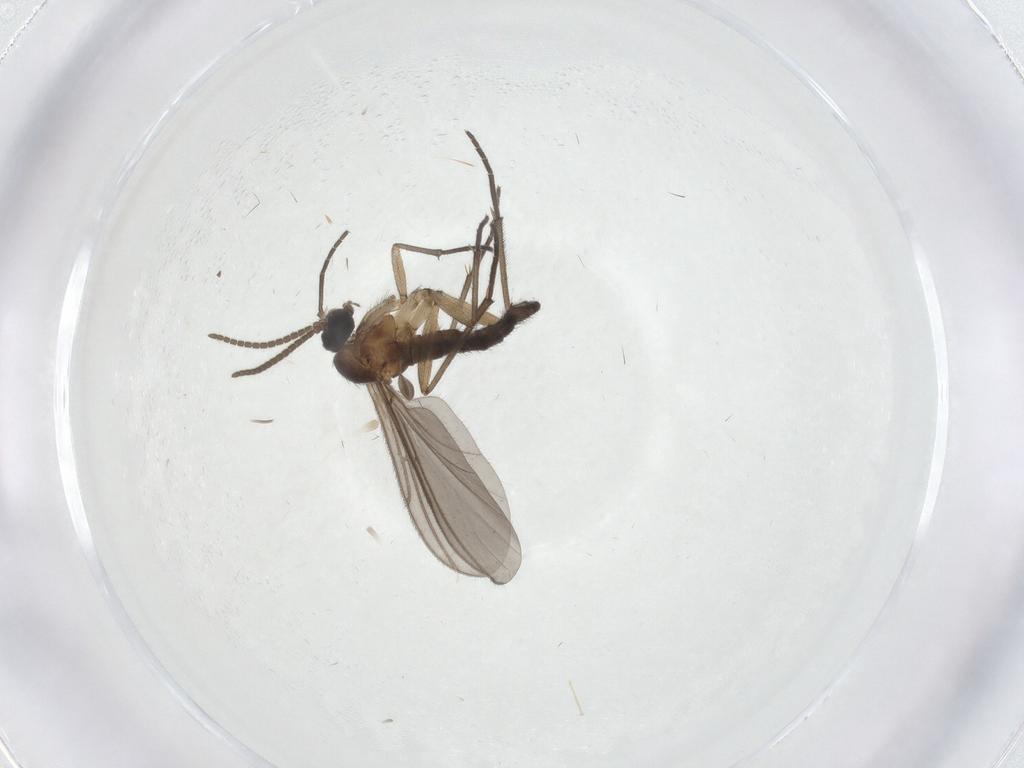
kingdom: Animalia
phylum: Arthropoda
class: Insecta
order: Diptera
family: Limoniidae
